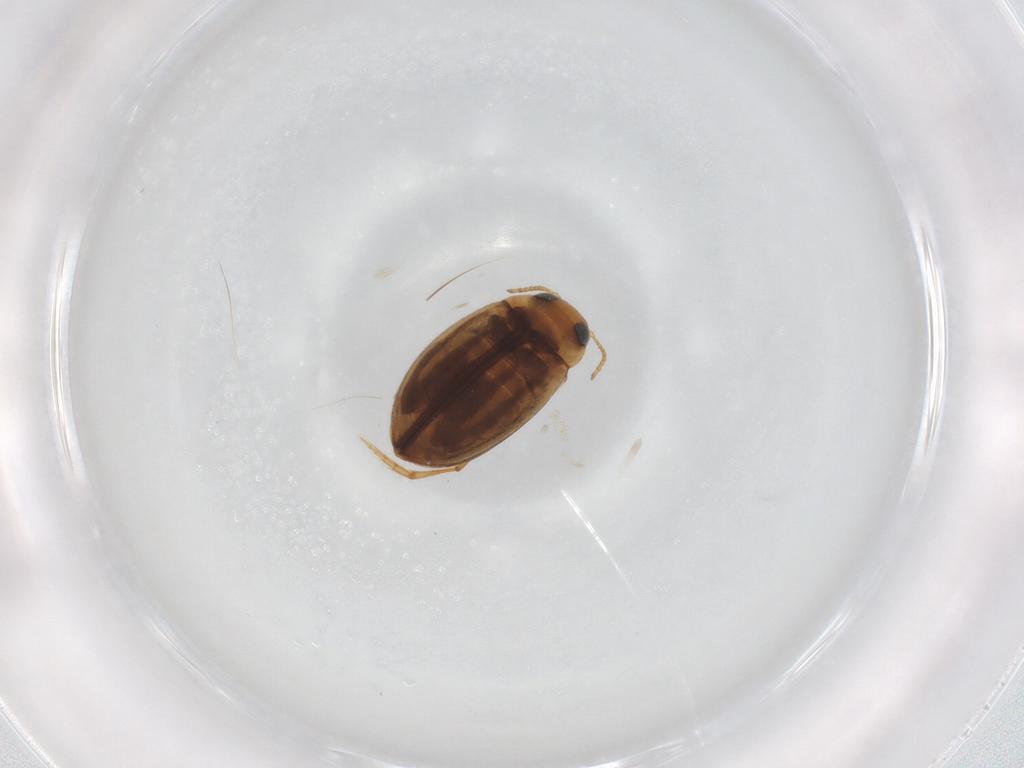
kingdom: Animalia
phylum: Arthropoda
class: Insecta
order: Coleoptera
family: Dytiscidae
